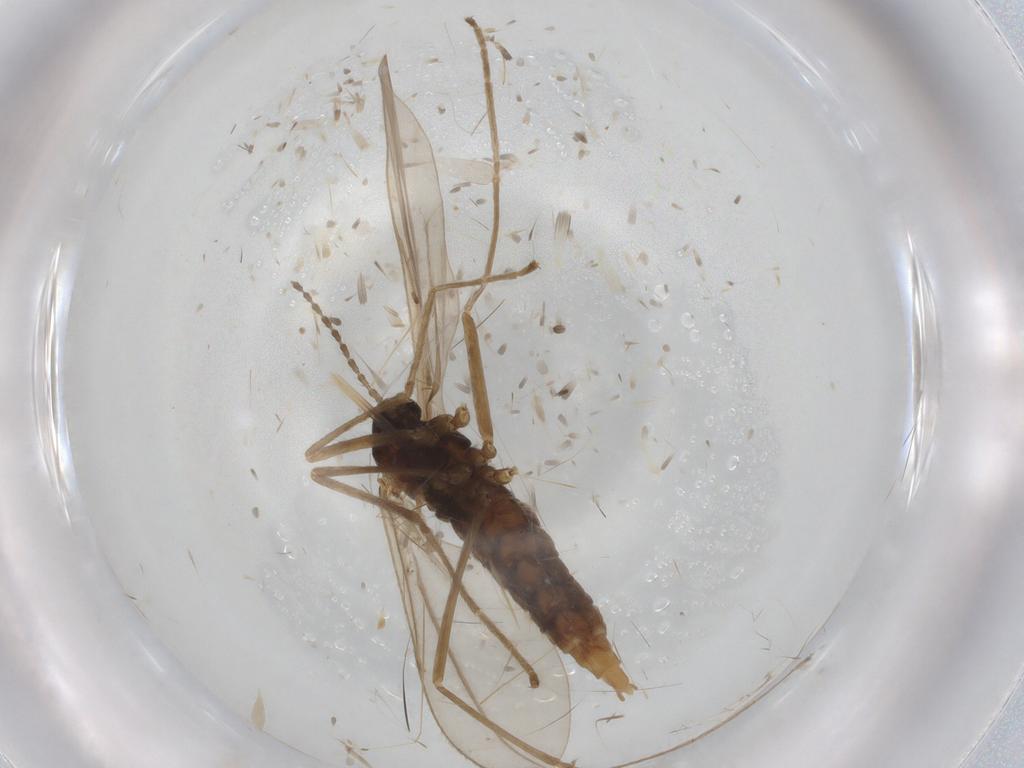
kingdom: Animalia
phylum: Arthropoda
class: Insecta
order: Diptera
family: Cecidomyiidae
